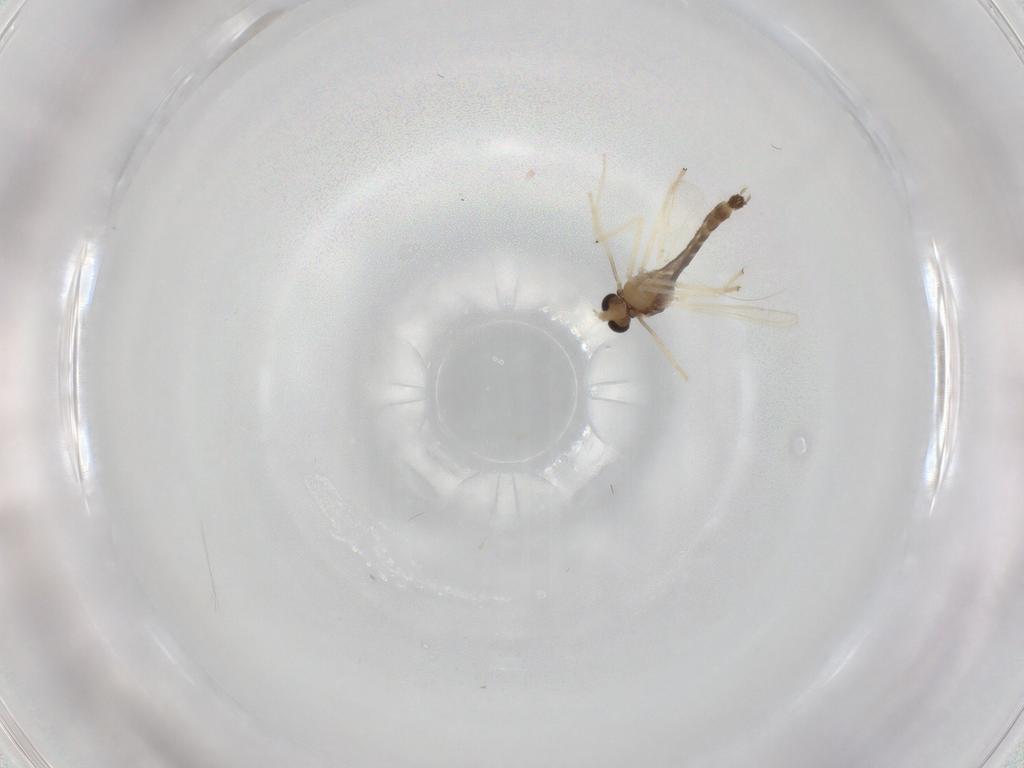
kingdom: Animalia
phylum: Arthropoda
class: Insecta
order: Diptera
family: Chironomidae
